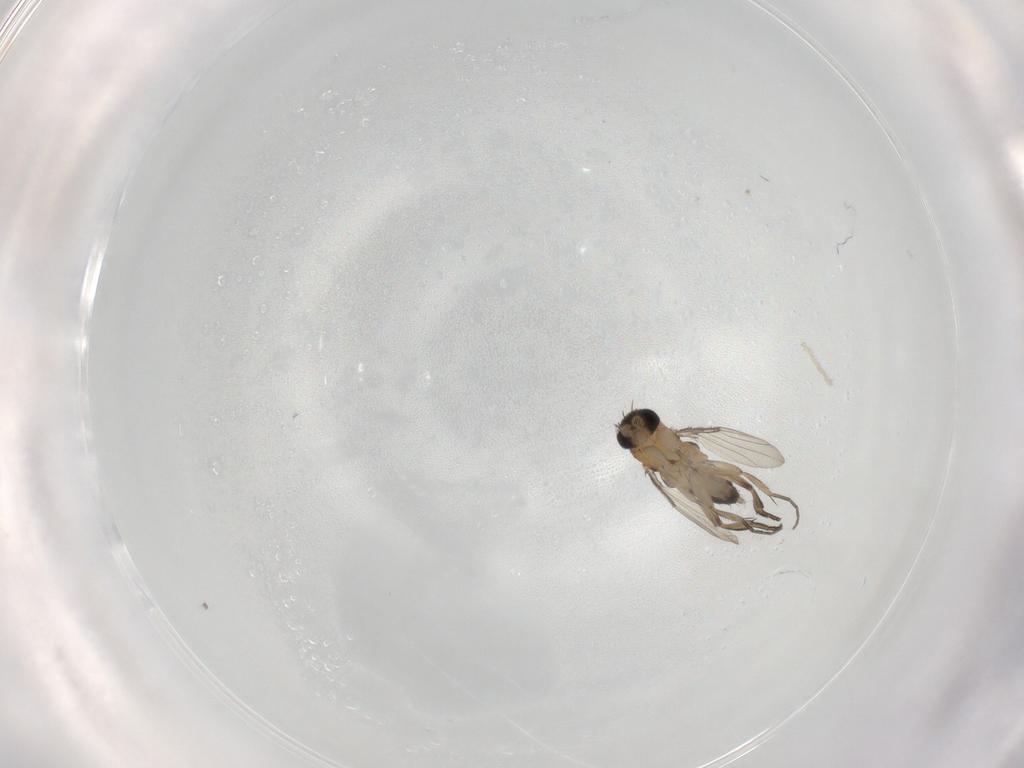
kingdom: Animalia
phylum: Arthropoda
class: Insecta
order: Diptera
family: Phoridae
